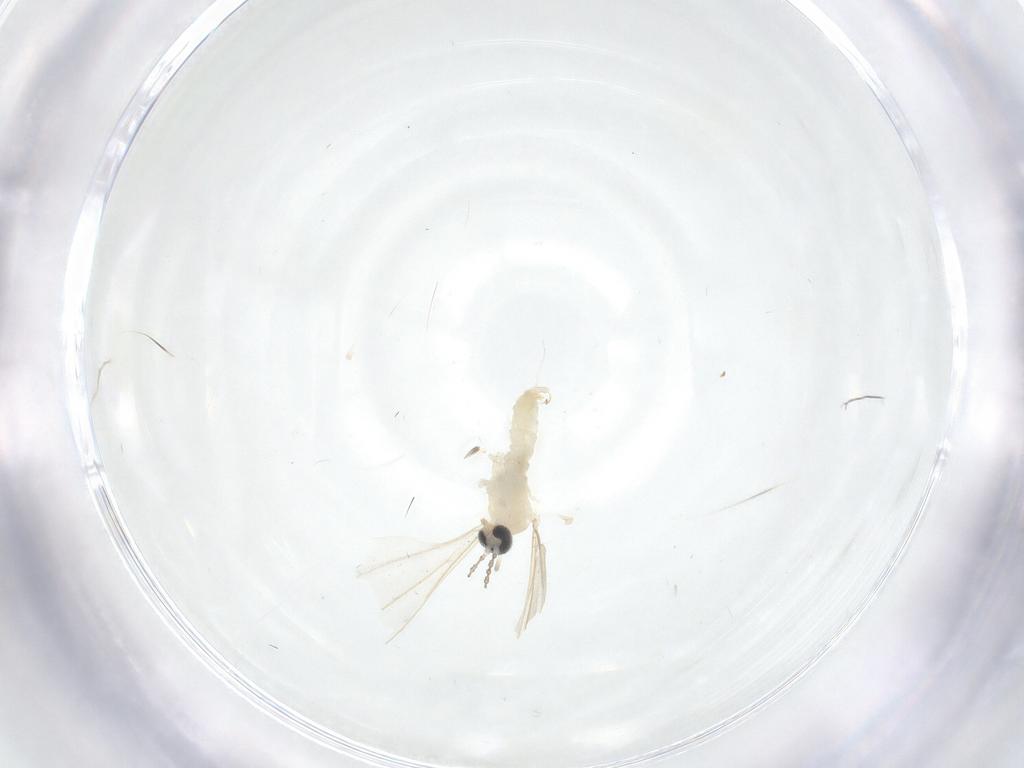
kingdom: Animalia
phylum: Arthropoda
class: Insecta
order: Diptera
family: Cecidomyiidae
